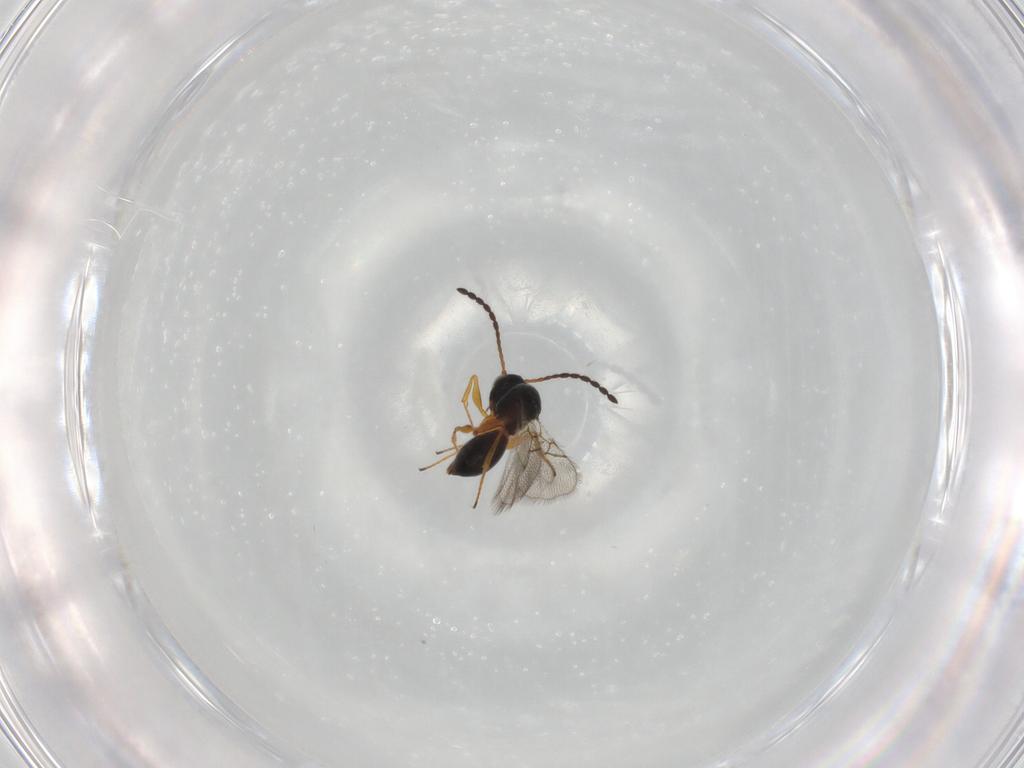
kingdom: Animalia
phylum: Arthropoda
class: Insecta
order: Hymenoptera
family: Figitidae
